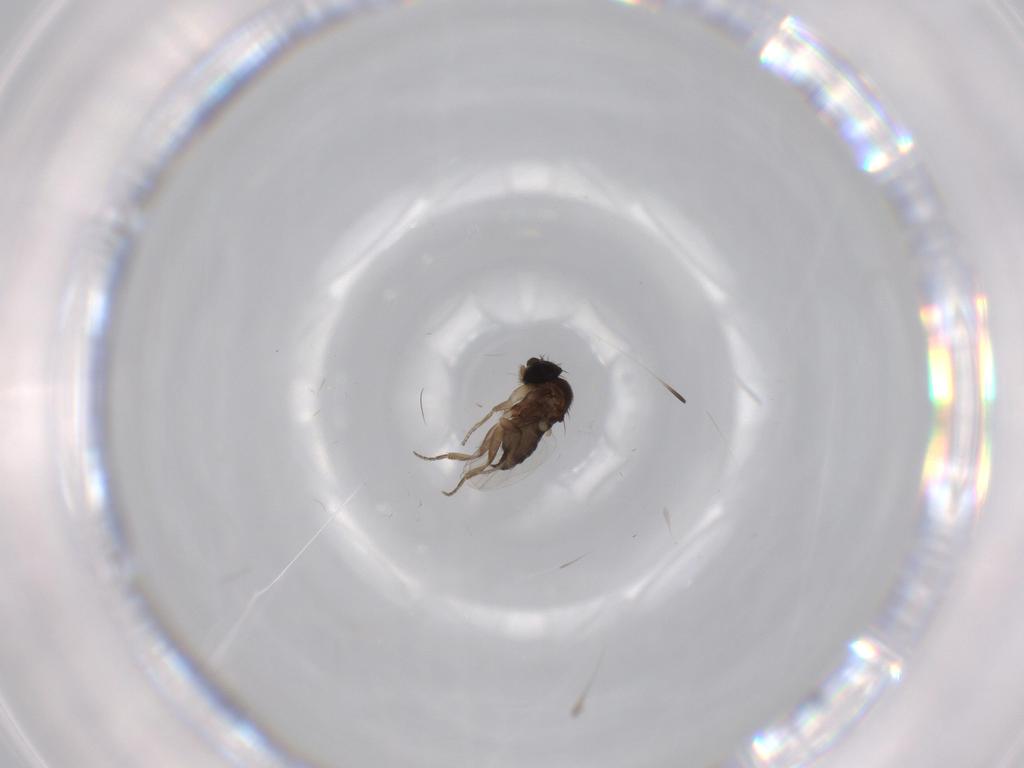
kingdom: Animalia
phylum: Arthropoda
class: Insecta
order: Diptera
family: Phoridae
